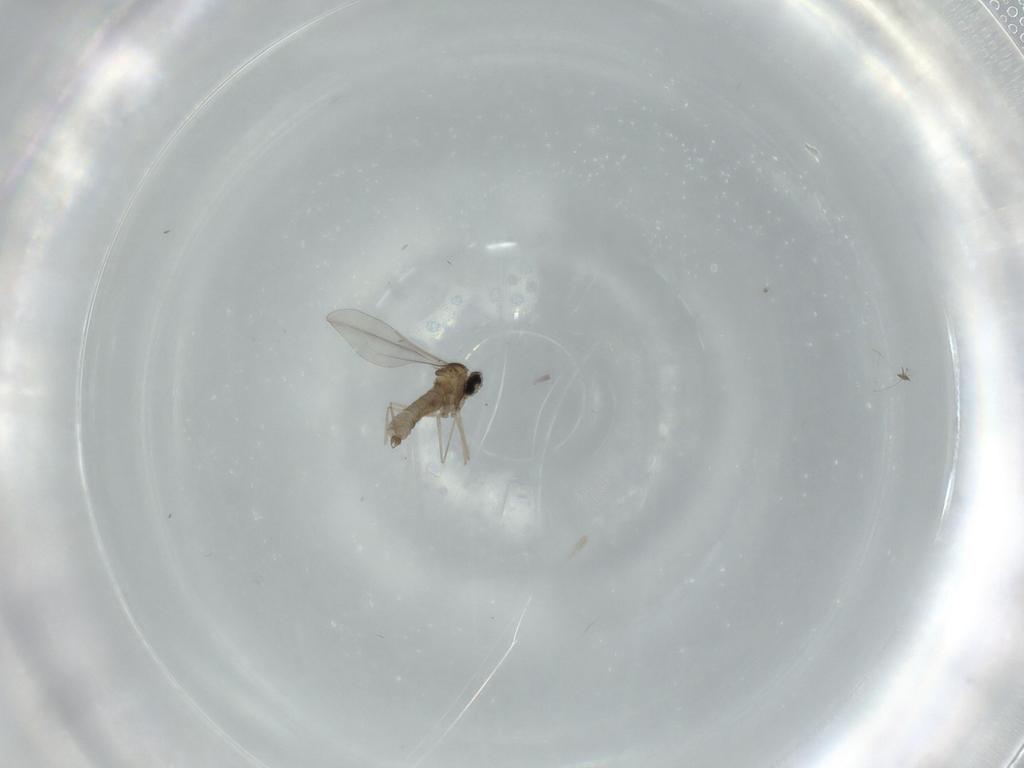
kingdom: Animalia
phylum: Arthropoda
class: Insecta
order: Diptera
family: Cecidomyiidae
